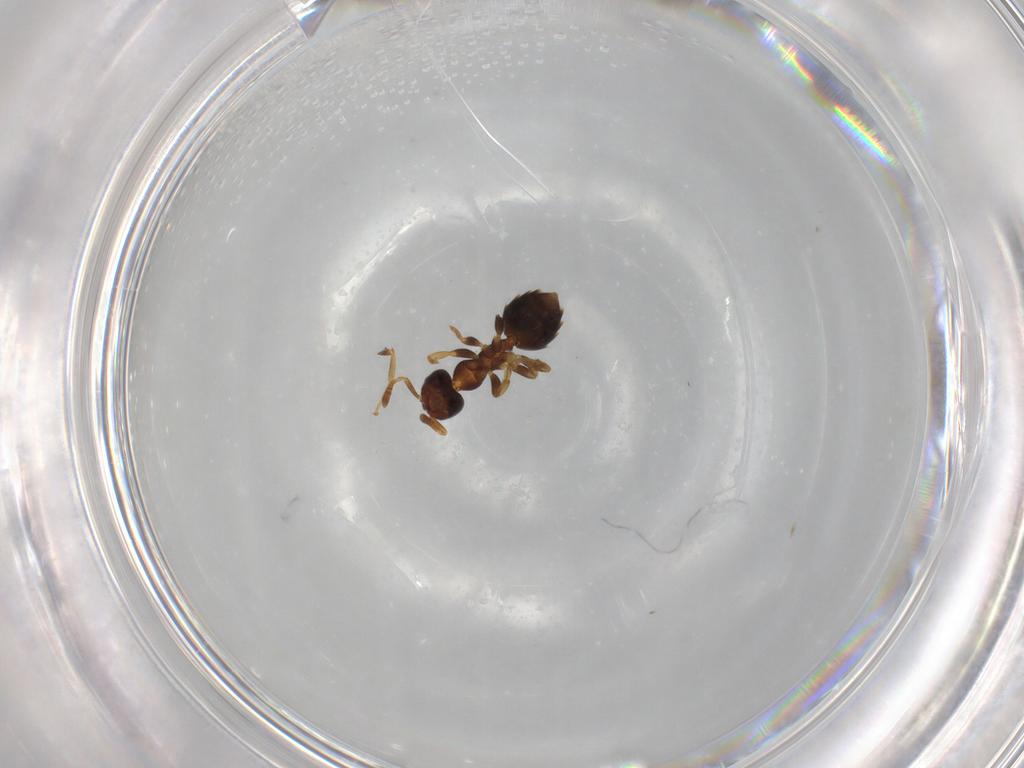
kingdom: Animalia
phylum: Arthropoda
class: Insecta
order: Hymenoptera
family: Formicidae
